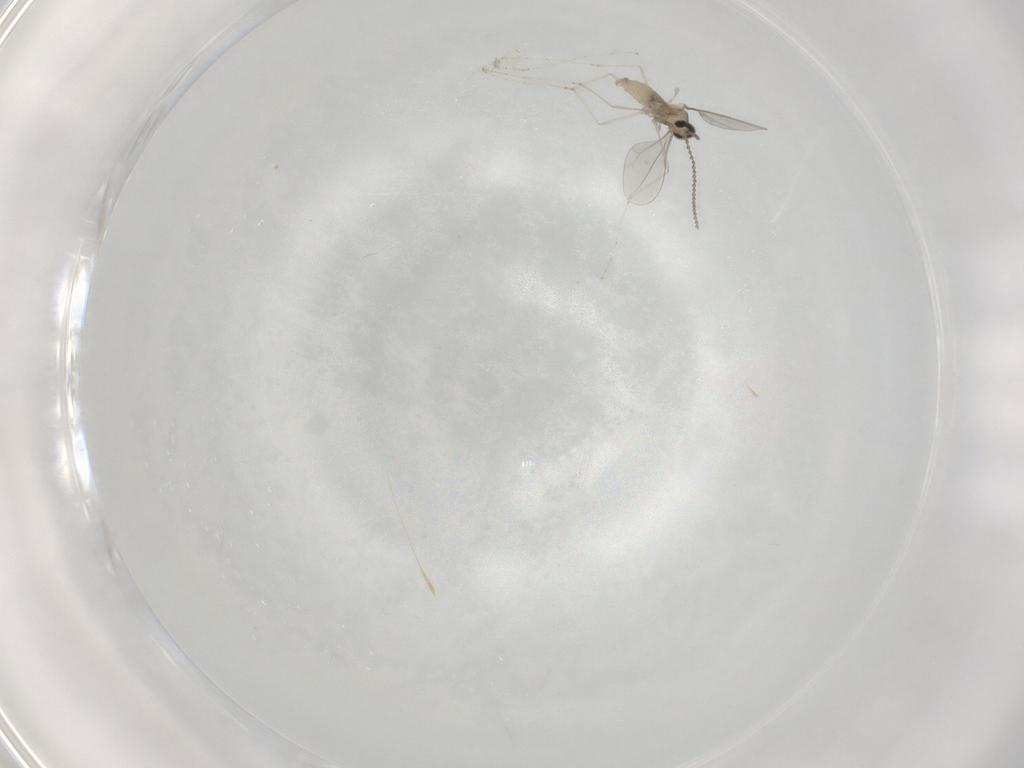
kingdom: Animalia
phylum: Arthropoda
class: Insecta
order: Diptera
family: Cecidomyiidae
